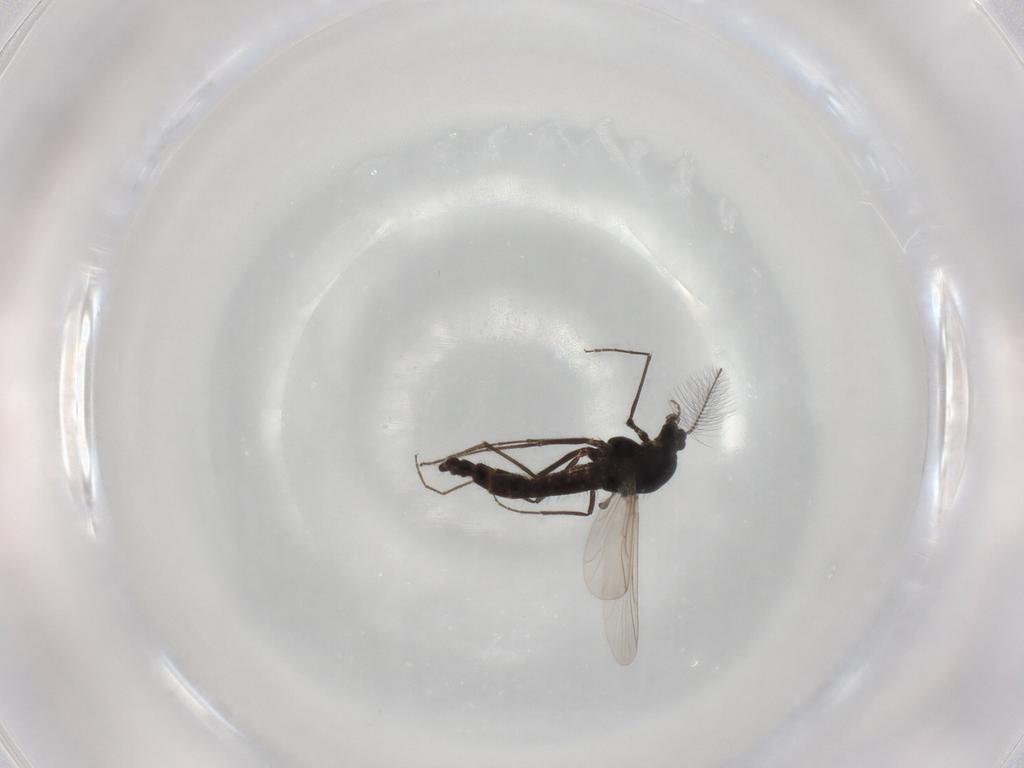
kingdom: Animalia
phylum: Arthropoda
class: Insecta
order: Diptera
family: Chironomidae
